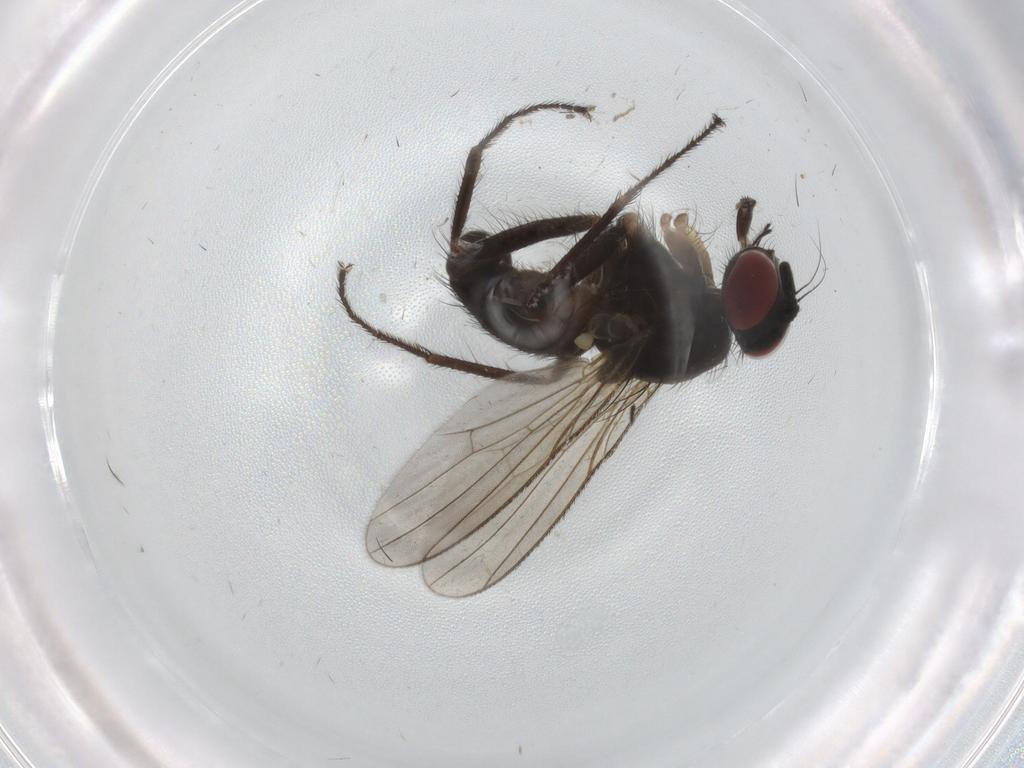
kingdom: Animalia
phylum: Arthropoda
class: Insecta
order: Diptera
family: Muscidae
